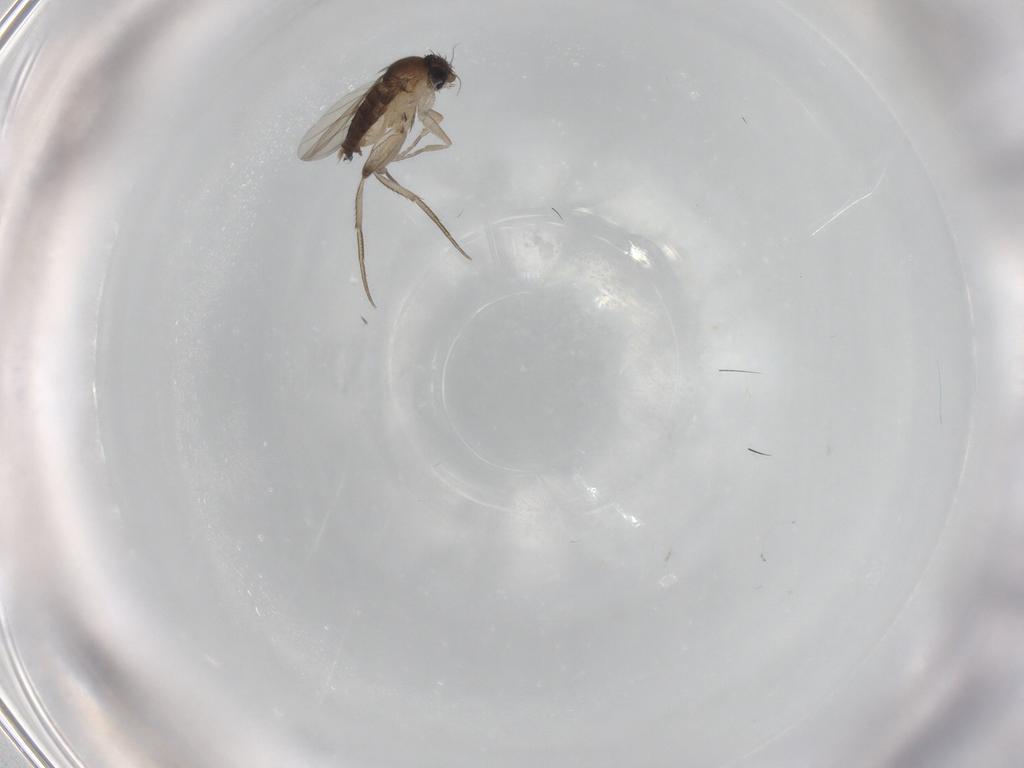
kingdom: Animalia
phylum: Arthropoda
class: Insecta
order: Diptera
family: Phoridae
